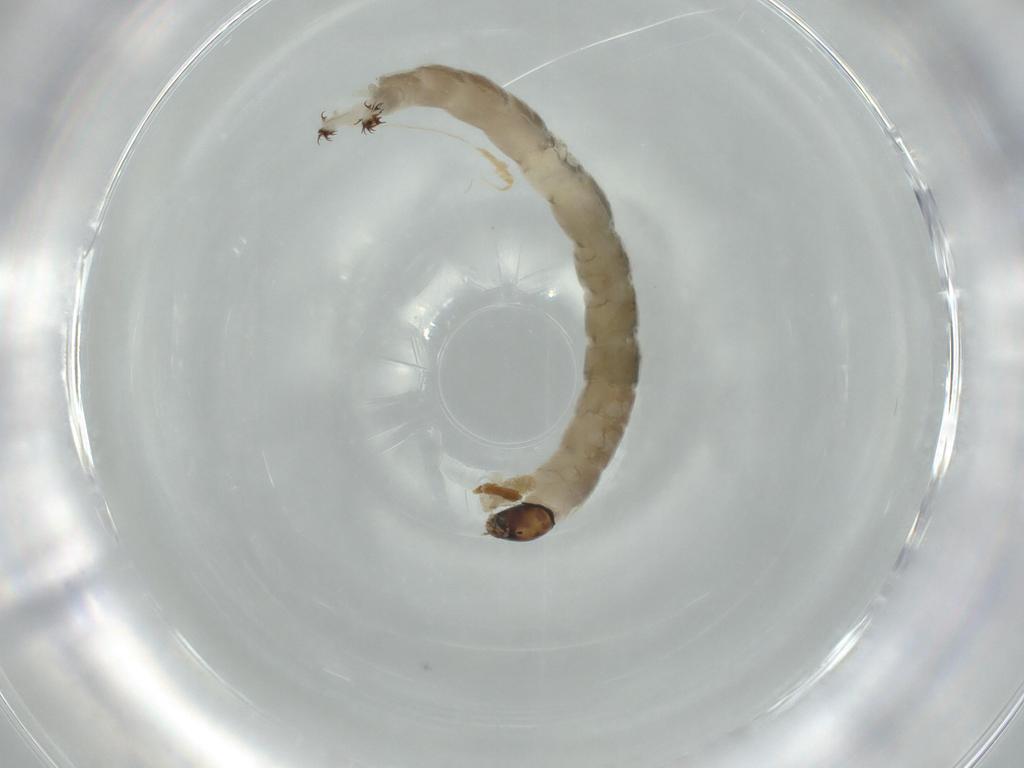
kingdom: Animalia
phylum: Arthropoda
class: Insecta
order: Diptera
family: Chironomidae
